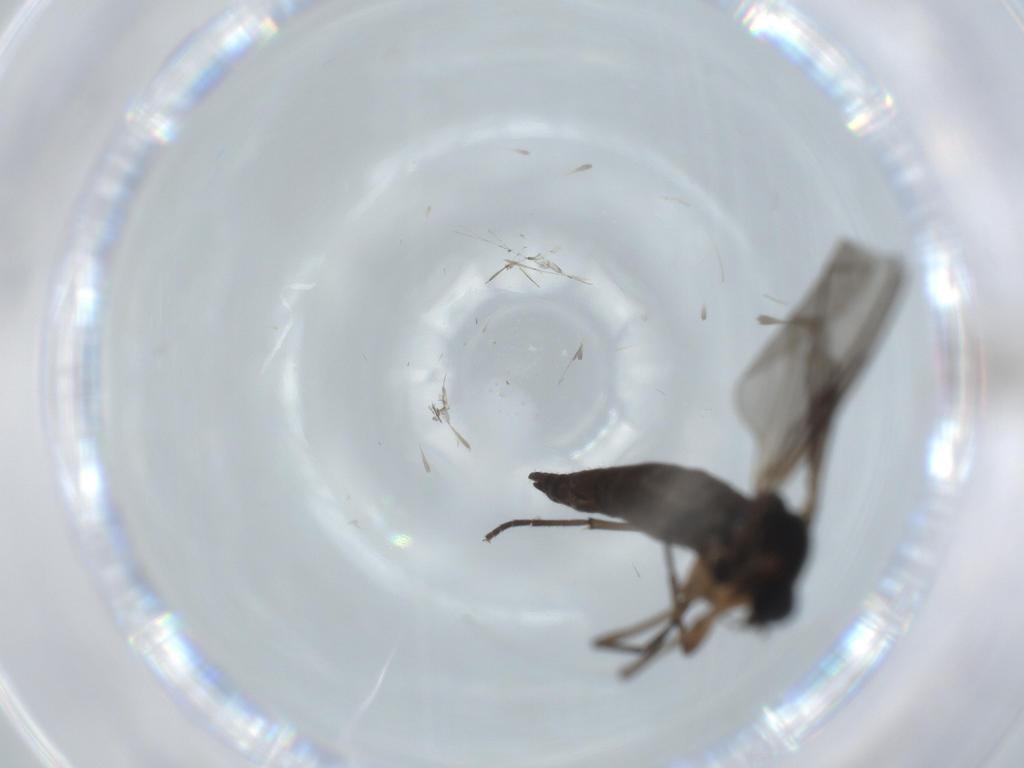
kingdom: Animalia
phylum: Arthropoda
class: Insecta
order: Diptera
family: Sciaridae
